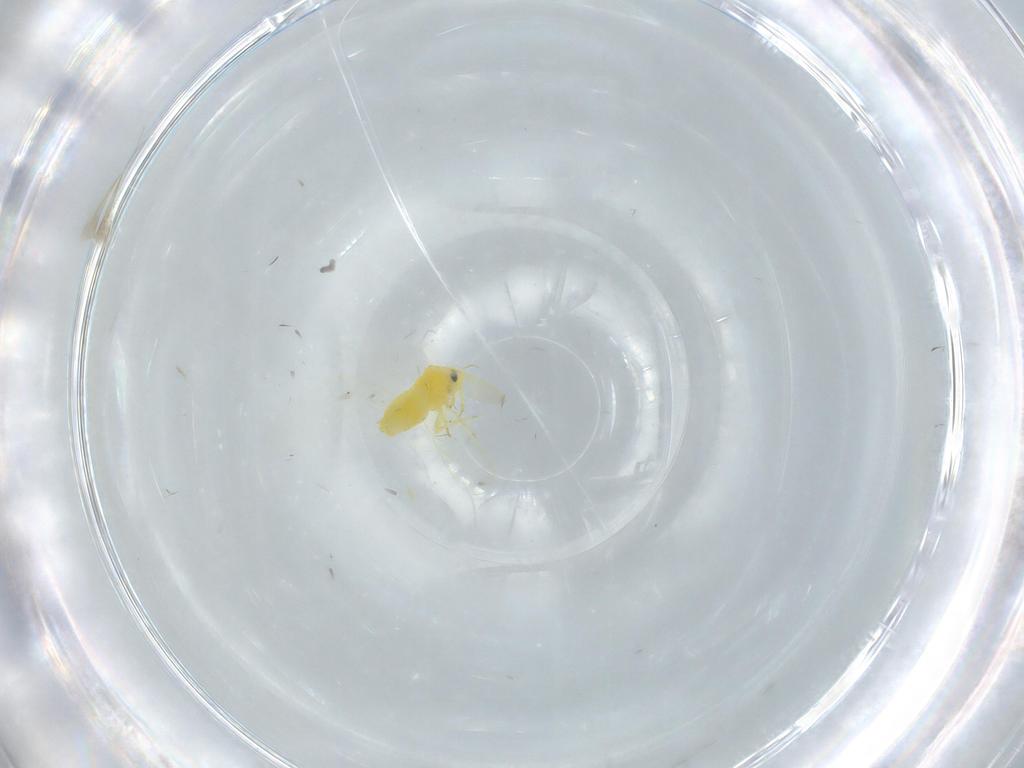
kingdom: Animalia
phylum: Arthropoda
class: Insecta
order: Hemiptera
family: Aleyrodidae
